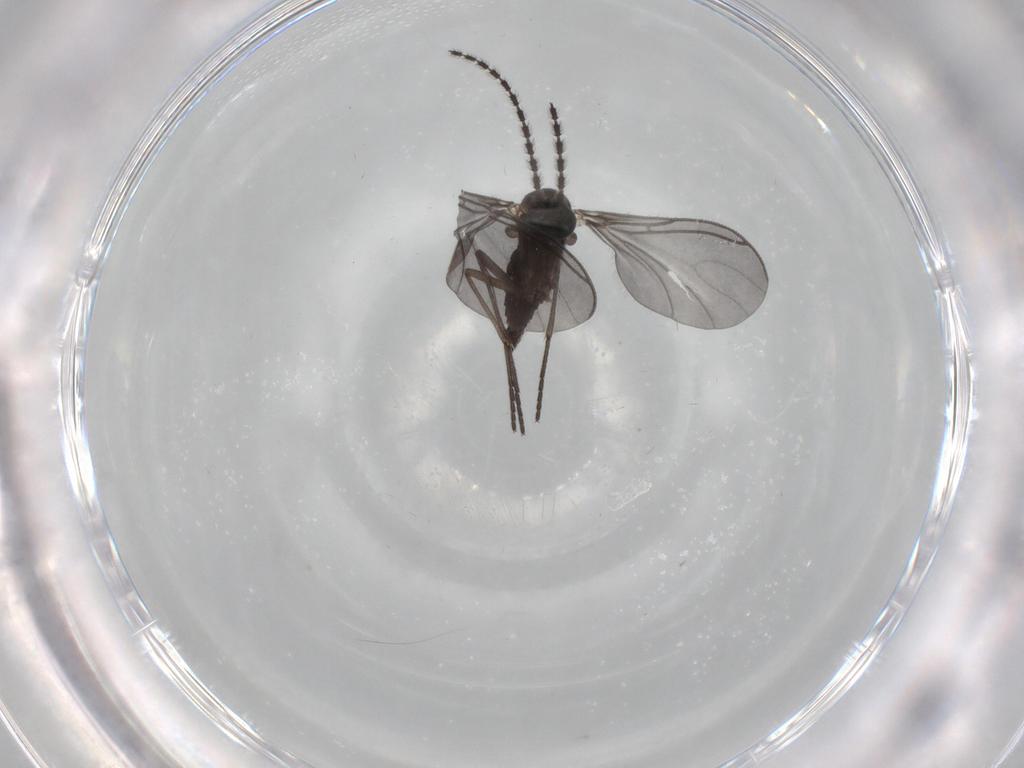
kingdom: Animalia
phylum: Arthropoda
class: Insecta
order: Diptera
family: Sciaridae
